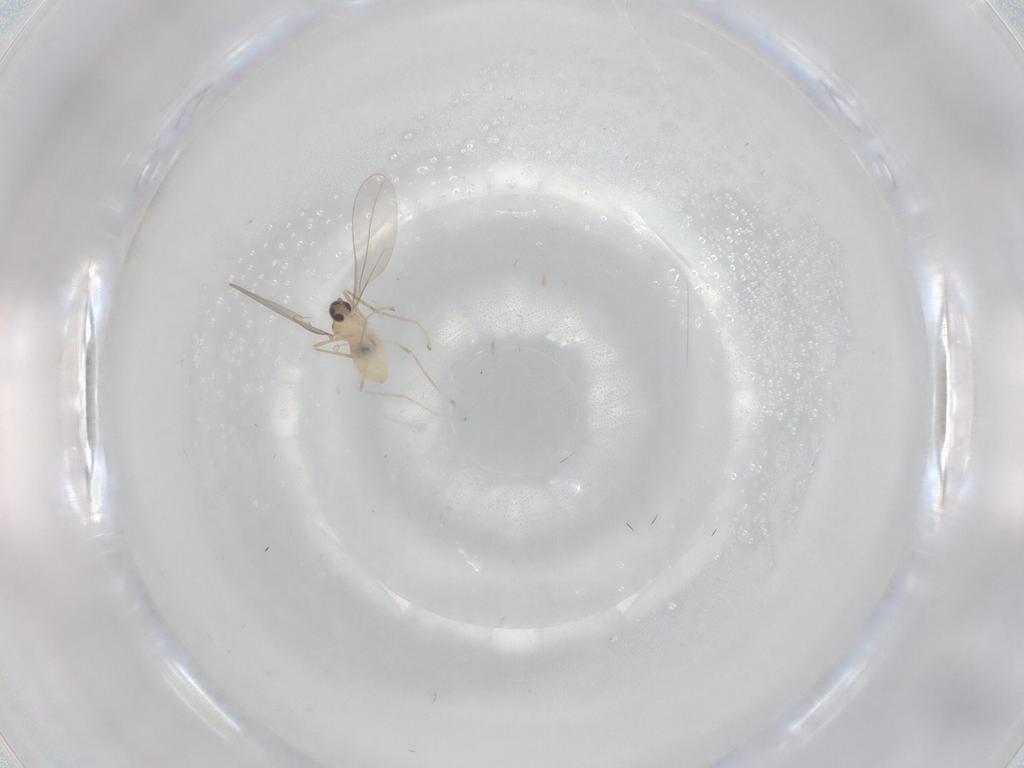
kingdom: Animalia
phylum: Arthropoda
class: Insecta
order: Diptera
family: Cecidomyiidae
